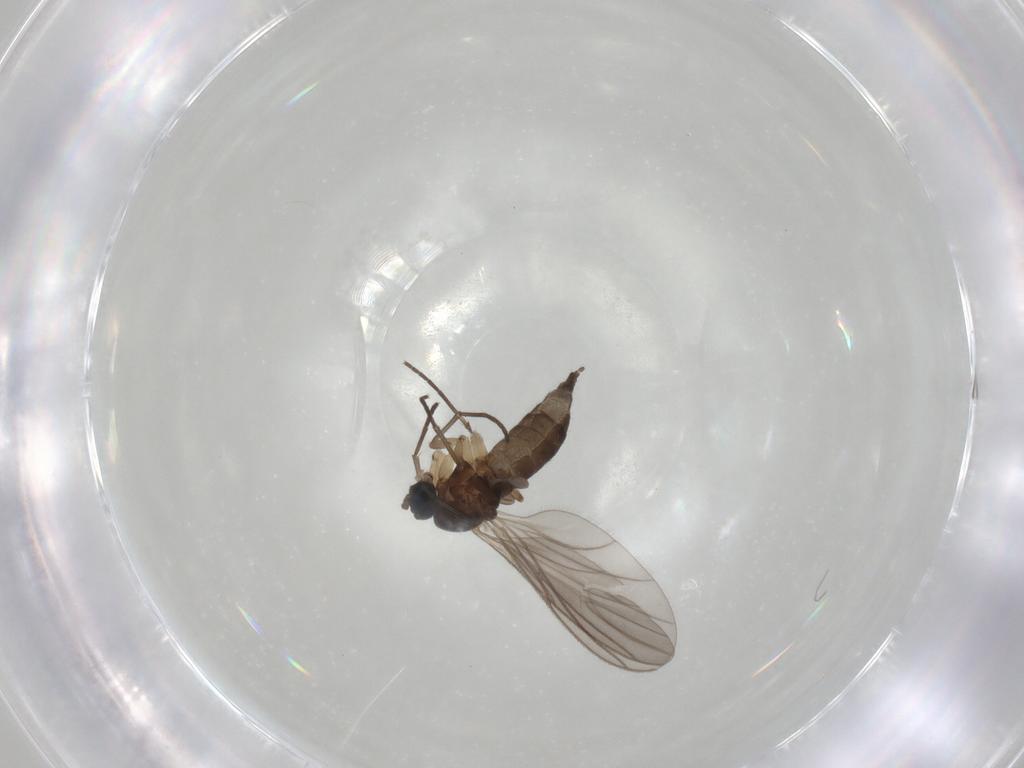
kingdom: Animalia
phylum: Arthropoda
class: Insecta
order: Diptera
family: Sciaridae
